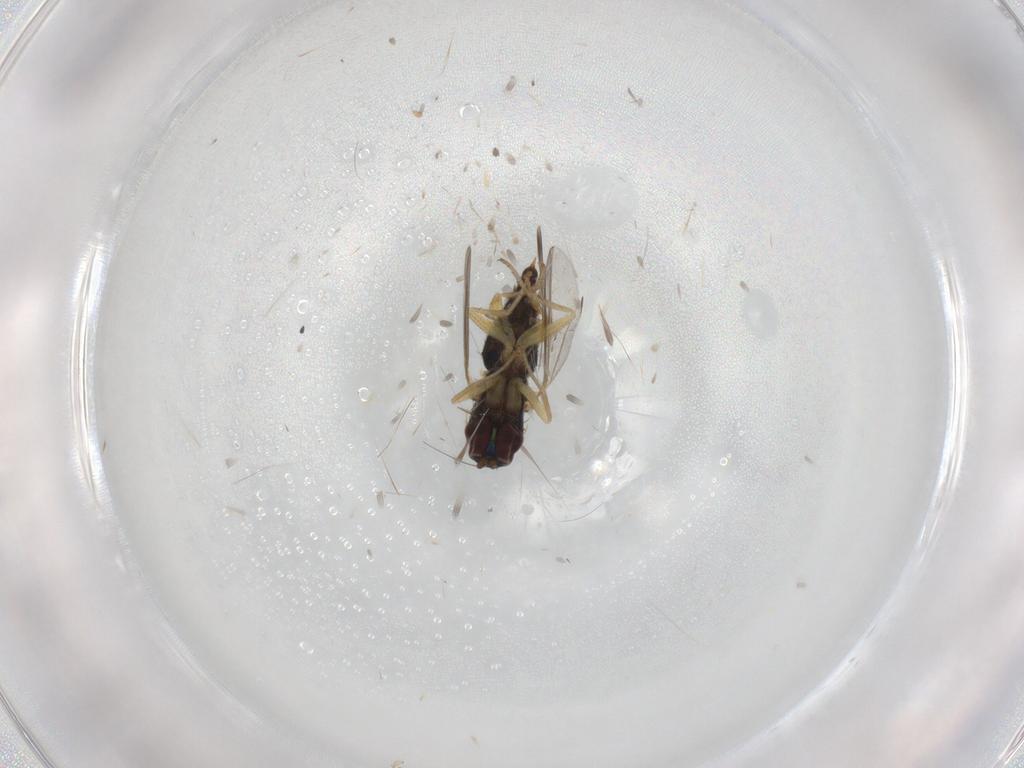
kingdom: Animalia
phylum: Arthropoda
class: Insecta
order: Diptera
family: Dolichopodidae
